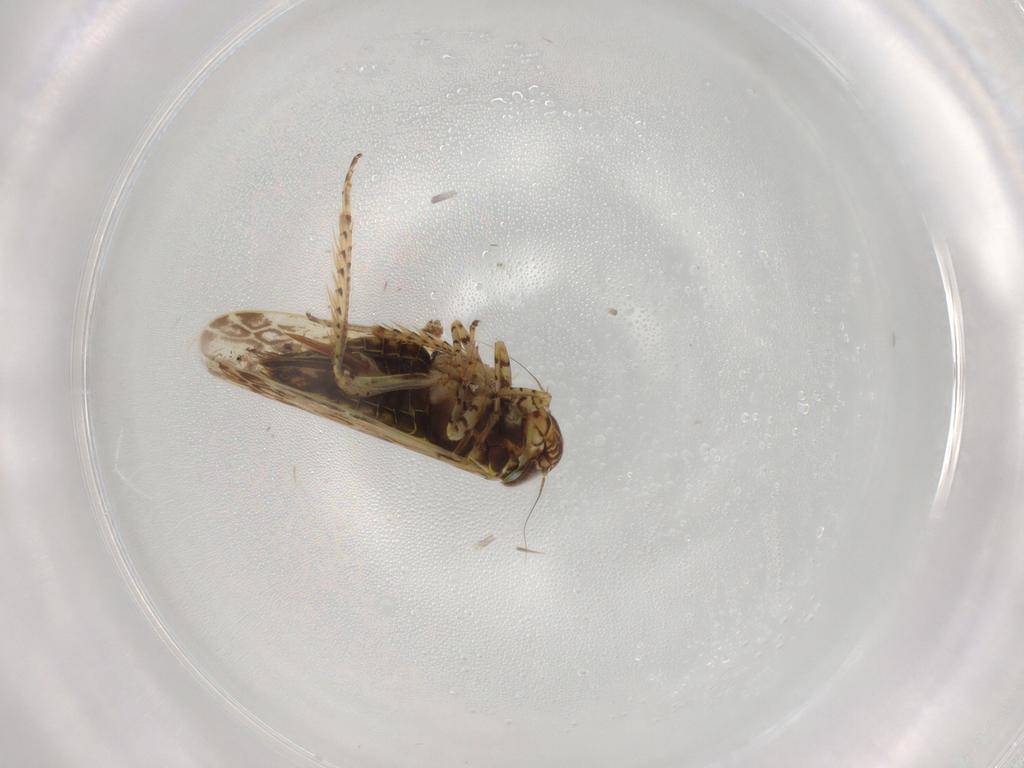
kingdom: Animalia
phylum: Arthropoda
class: Insecta
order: Hemiptera
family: Cicadellidae
